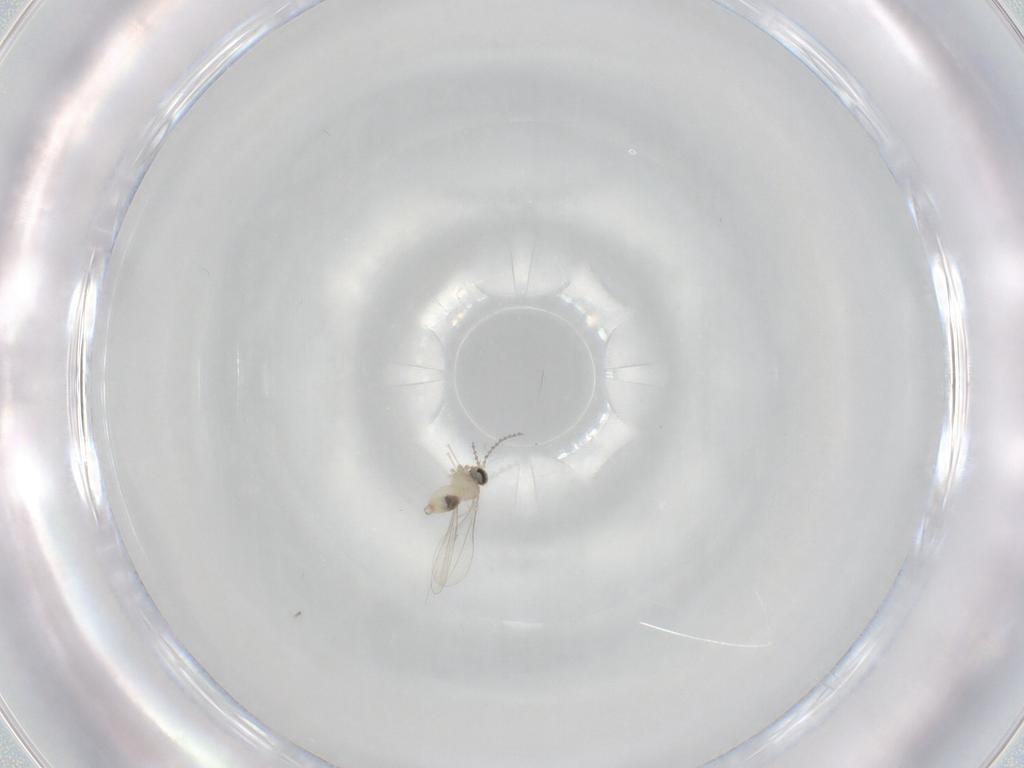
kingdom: Animalia
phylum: Arthropoda
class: Insecta
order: Diptera
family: Cecidomyiidae
